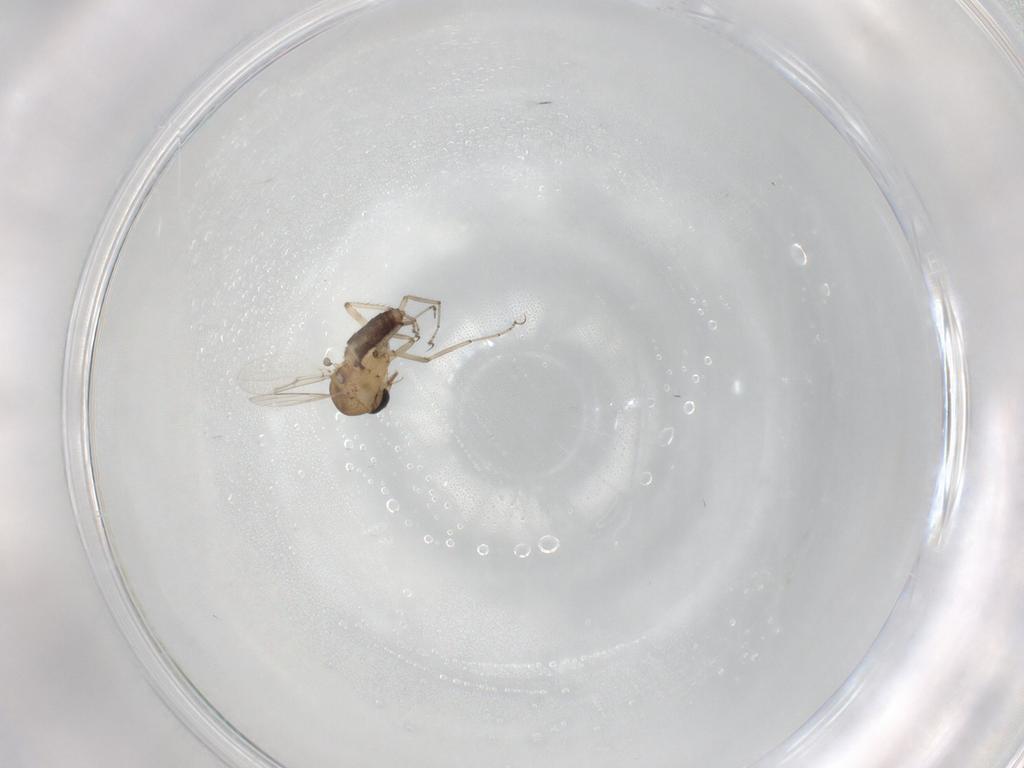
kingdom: Animalia
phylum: Arthropoda
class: Insecta
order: Diptera
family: Ceratopogonidae
